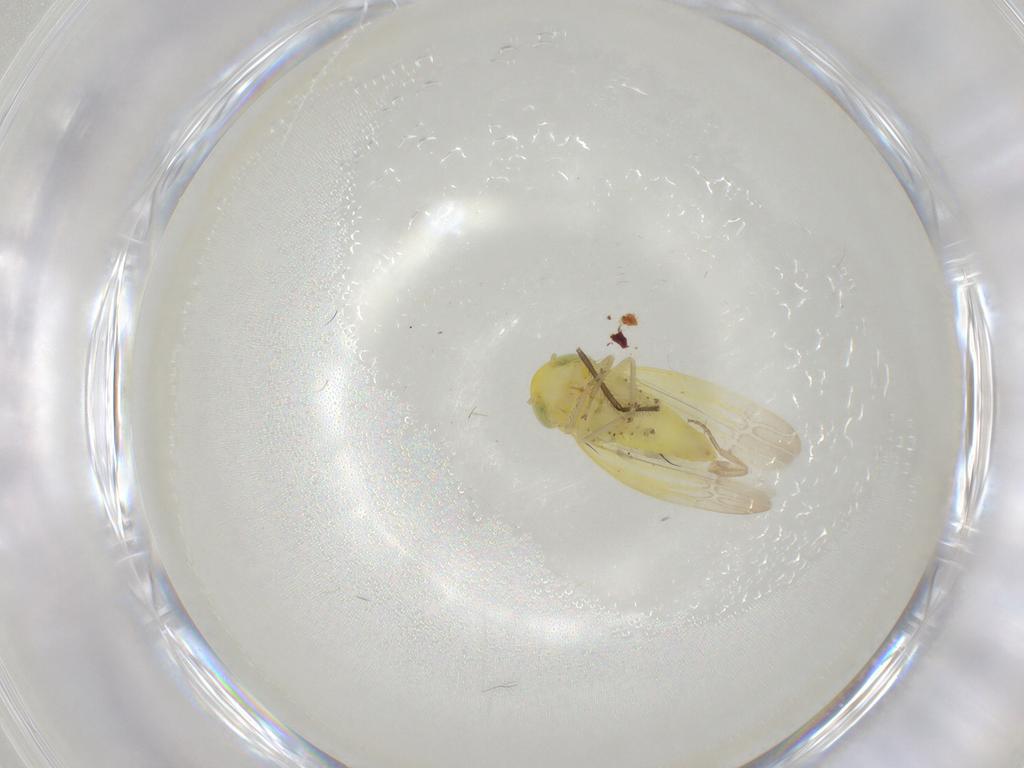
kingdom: Animalia
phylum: Arthropoda
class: Insecta
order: Hemiptera
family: Cicadellidae
